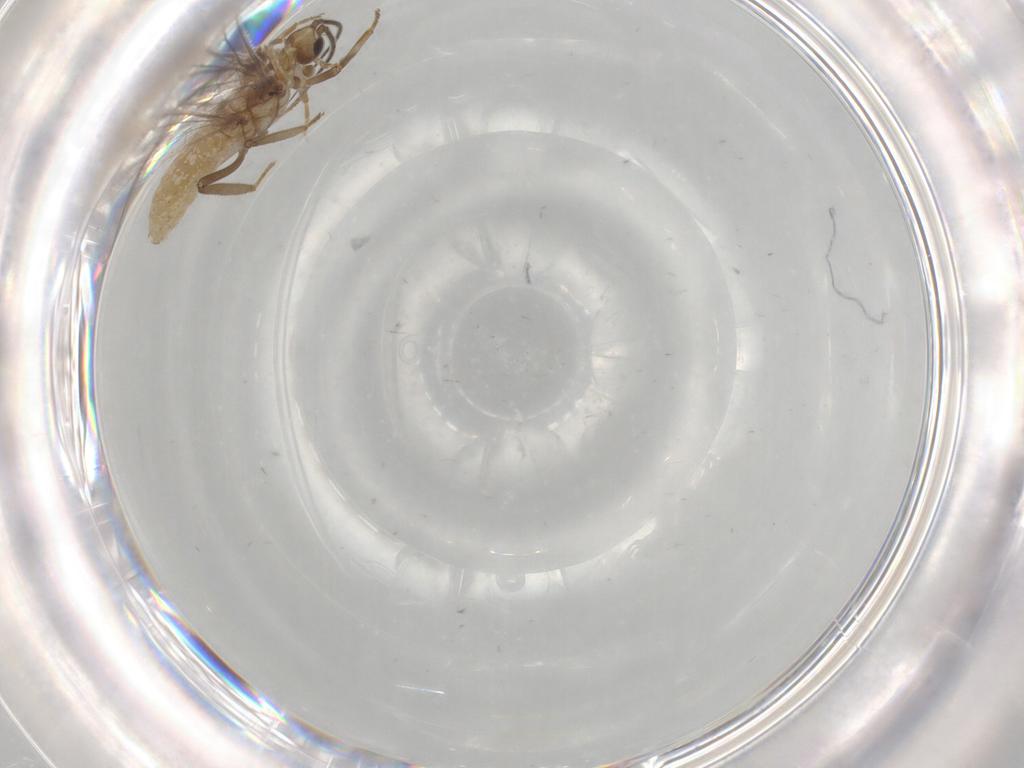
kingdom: Animalia
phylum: Arthropoda
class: Insecta
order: Neuroptera
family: Coniopterygidae
